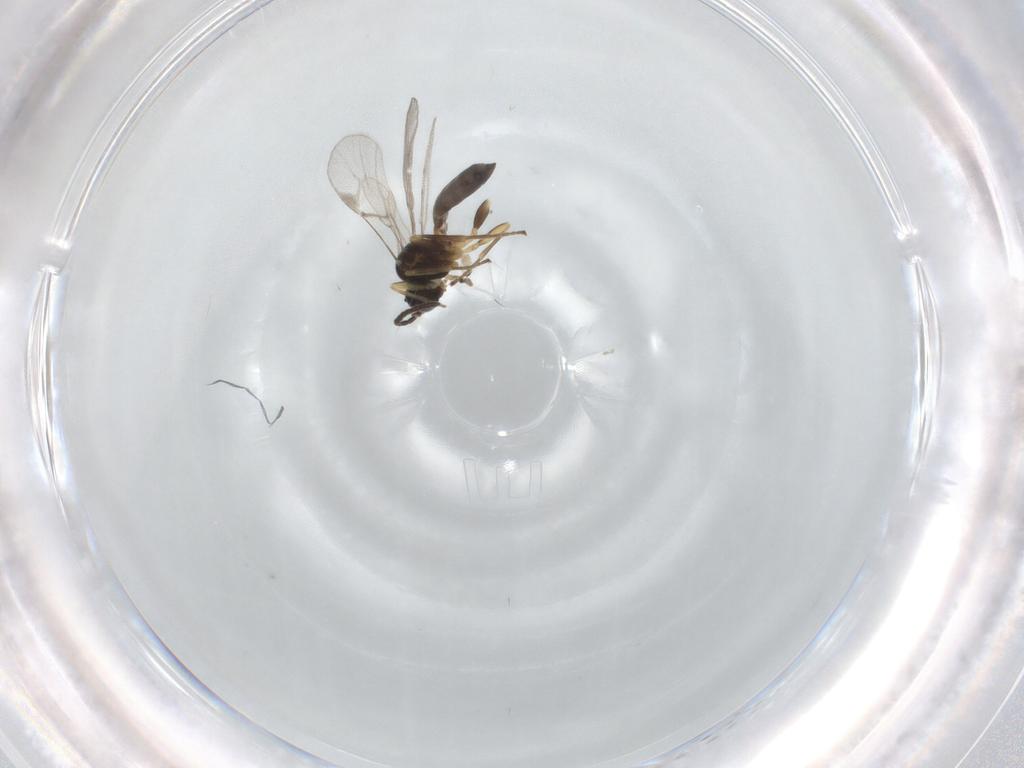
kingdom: Animalia
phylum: Arthropoda
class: Insecta
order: Hymenoptera
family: Braconidae
